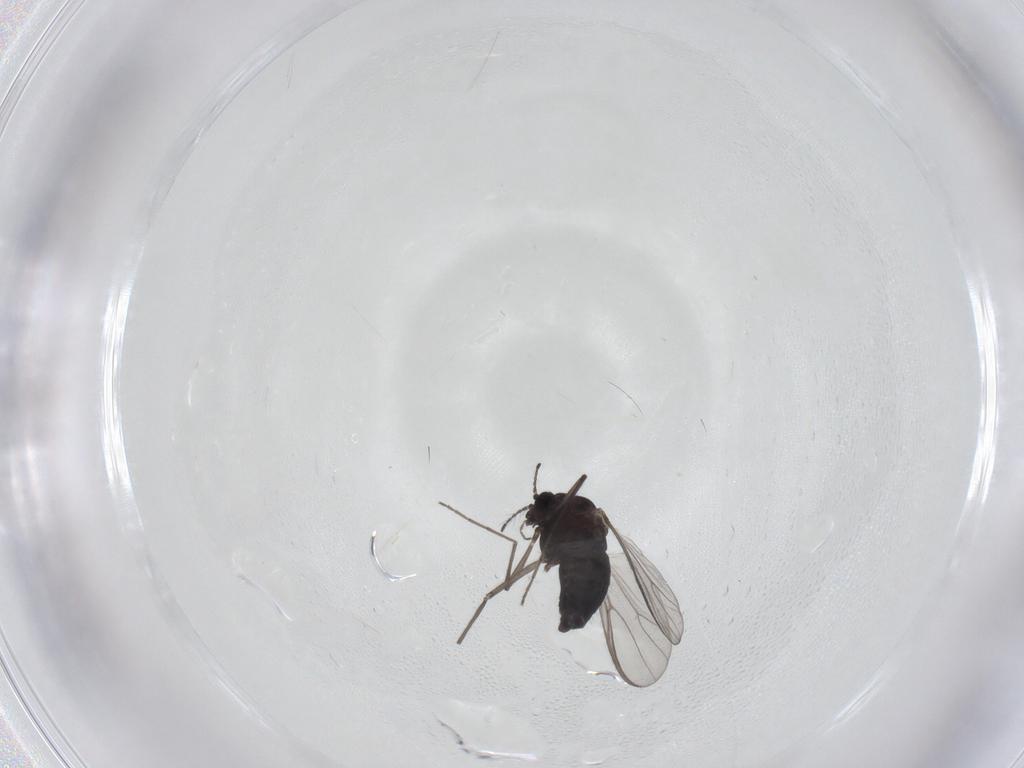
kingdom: Animalia
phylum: Arthropoda
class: Insecta
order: Diptera
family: Chironomidae
